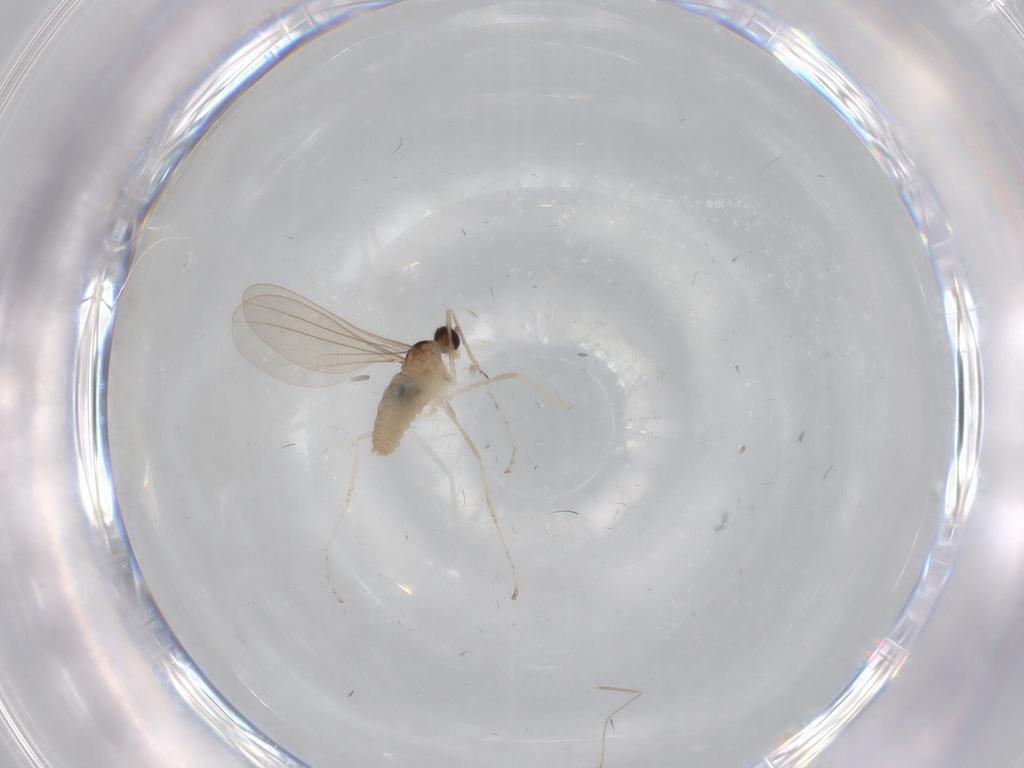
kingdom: Animalia
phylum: Arthropoda
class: Insecta
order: Diptera
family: Cecidomyiidae
